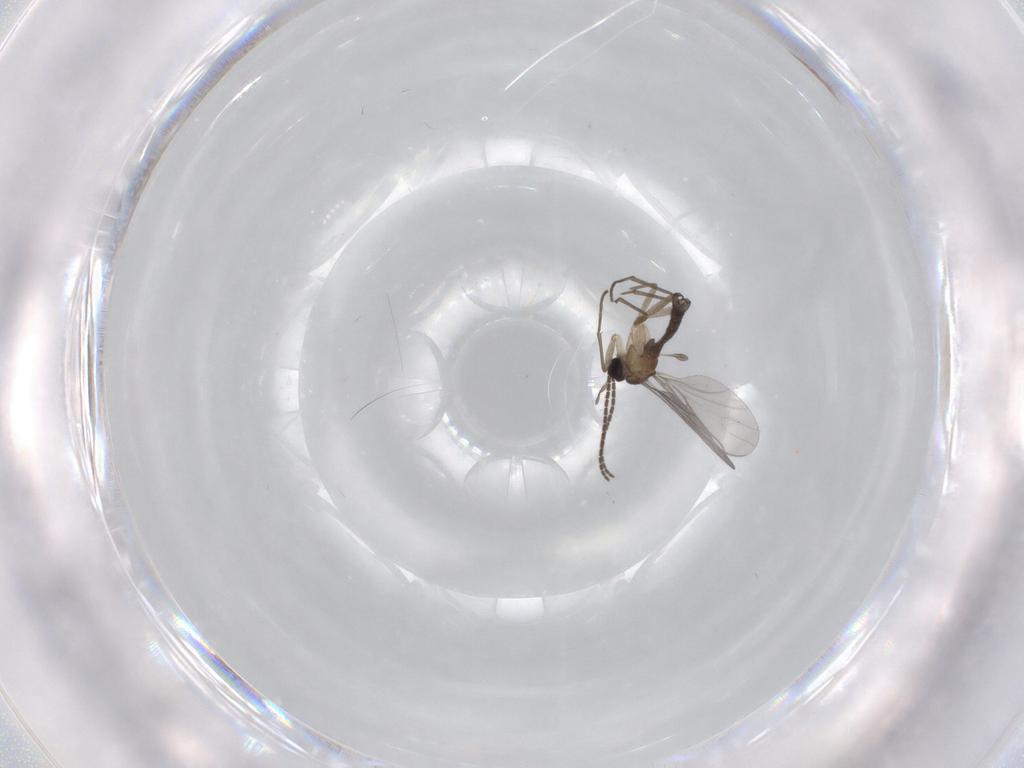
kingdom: Animalia
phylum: Arthropoda
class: Insecta
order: Diptera
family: Sciaridae
